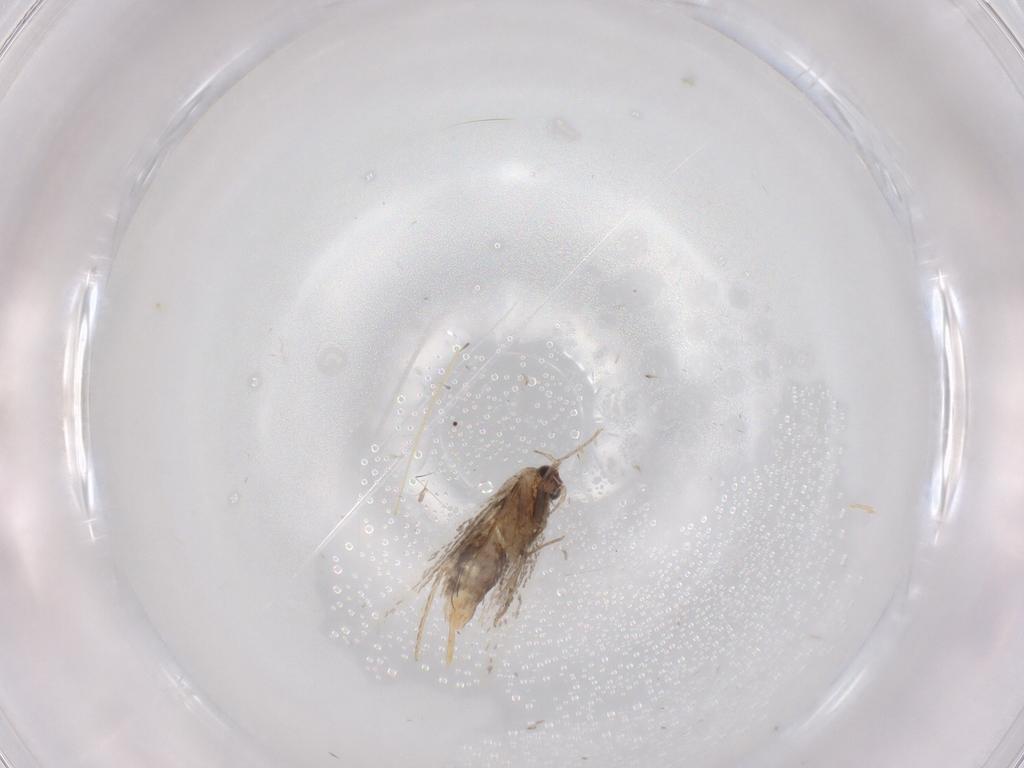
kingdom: Animalia
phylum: Arthropoda
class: Insecta
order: Lepidoptera
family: Tineidae
